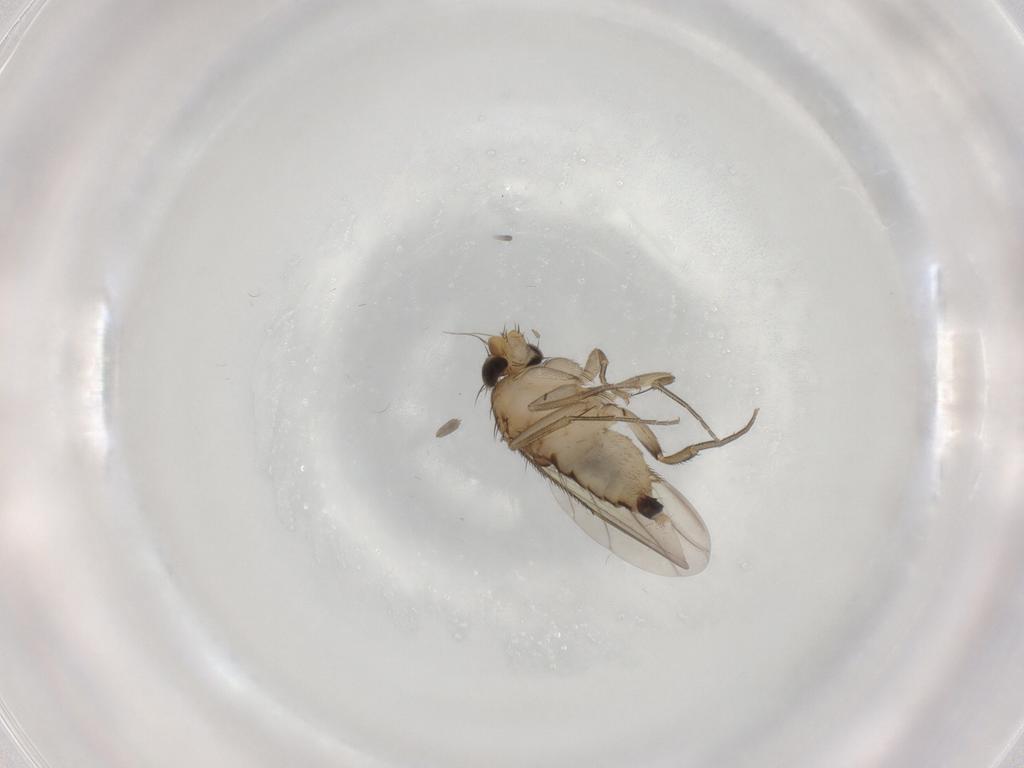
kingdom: Animalia
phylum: Arthropoda
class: Insecta
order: Diptera
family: Phoridae
